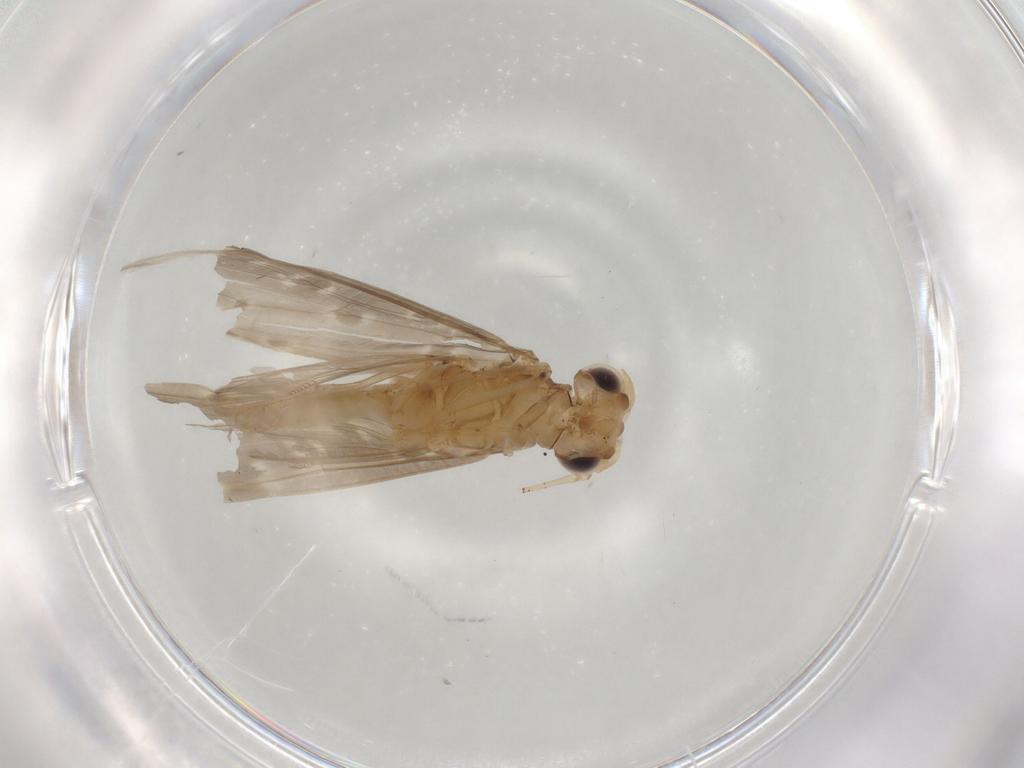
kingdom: Animalia
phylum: Arthropoda
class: Insecta
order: Trichoptera
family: Leptoceridae
